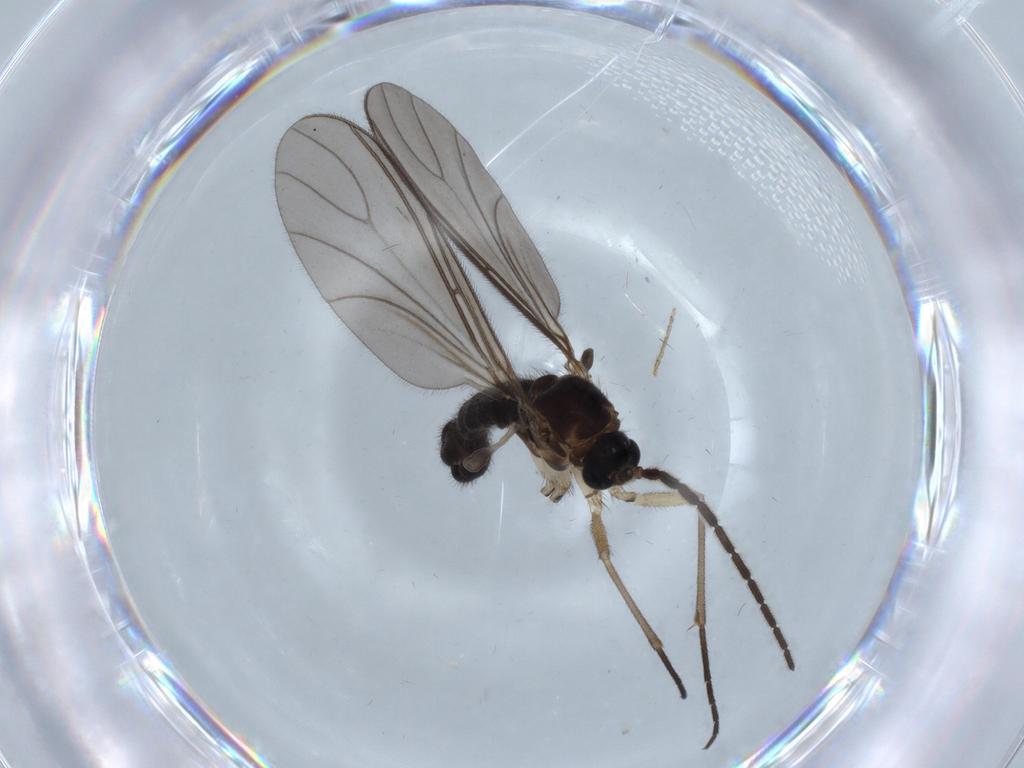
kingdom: Animalia
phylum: Arthropoda
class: Insecta
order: Diptera
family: Sciaridae
